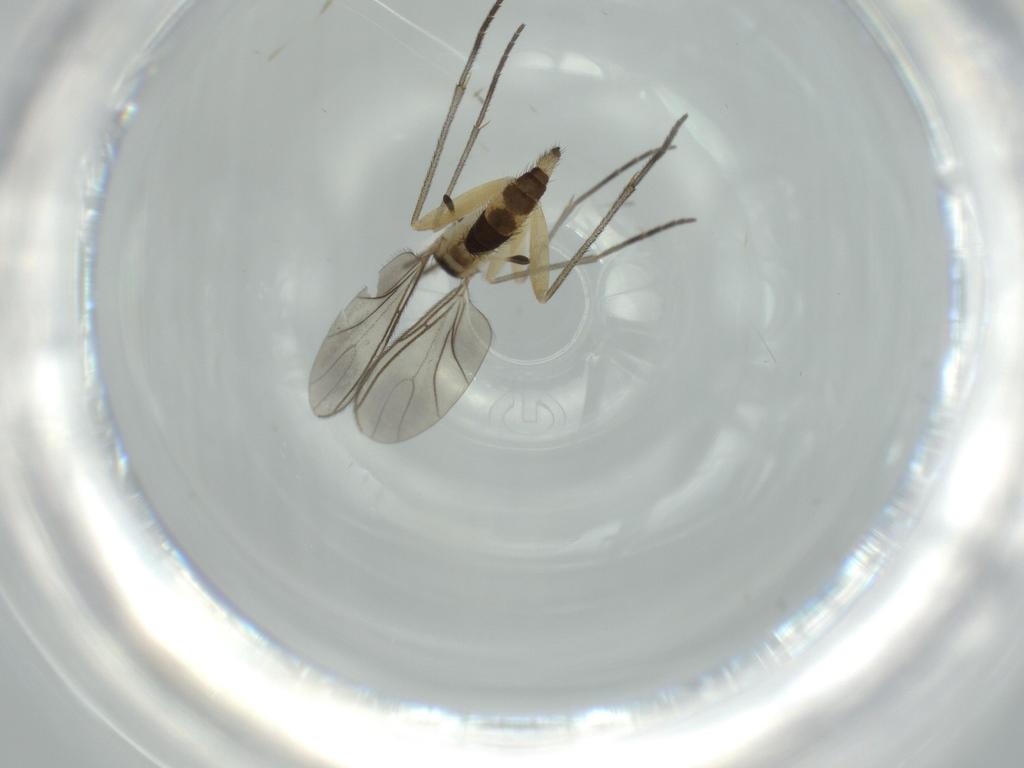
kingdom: Animalia
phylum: Arthropoda
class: Insecta
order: Diptera
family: Sciaridae
